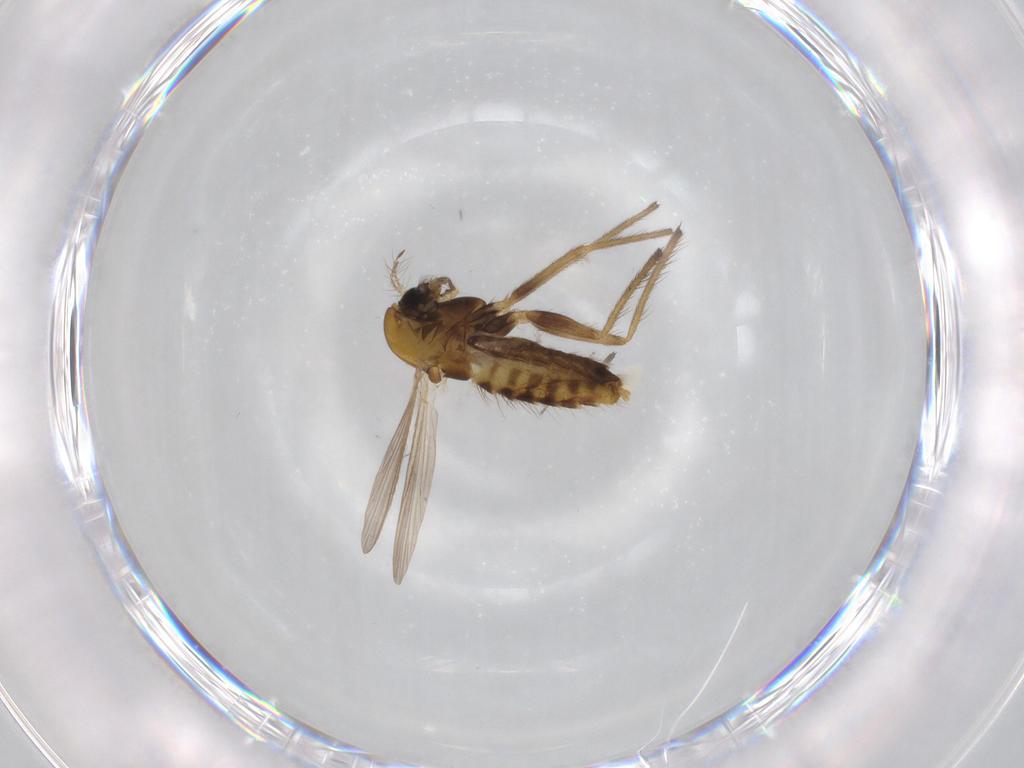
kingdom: Animalia
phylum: Arthropoda
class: Insecta
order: Diptera
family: Chironomidae
